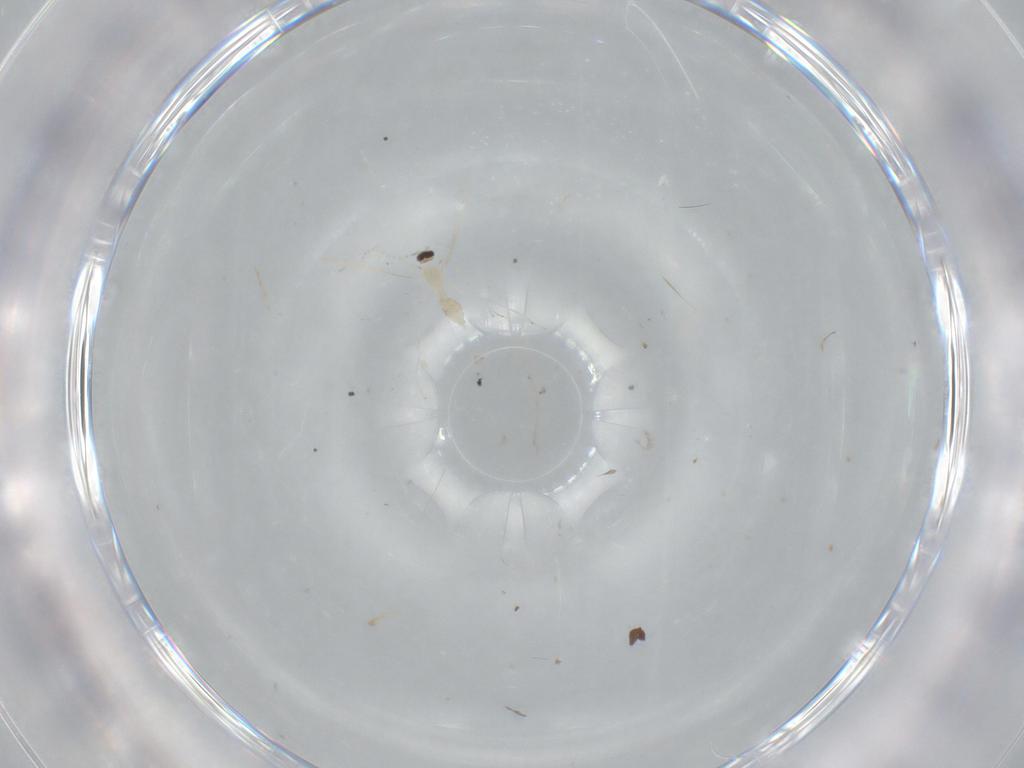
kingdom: Animalia
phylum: Arthropoda
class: Insecta
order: Diptera
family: Cecidomyiidae
